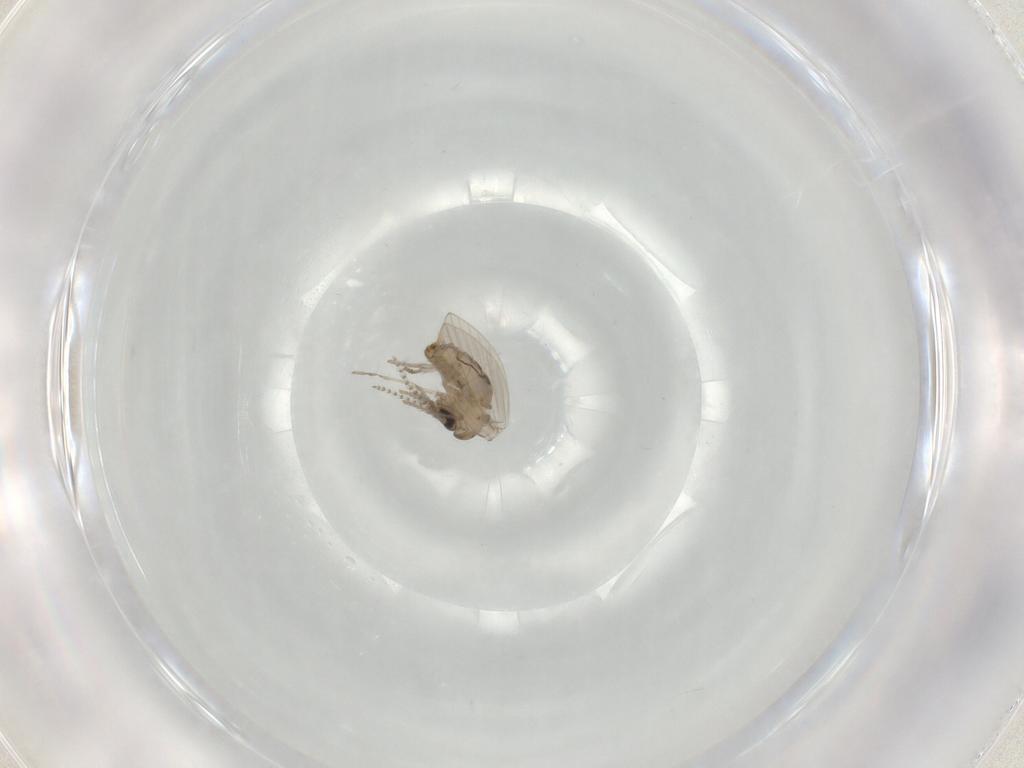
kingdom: Animalia
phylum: Arthropoda
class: Insecta
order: Diptera
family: Psychodidae
